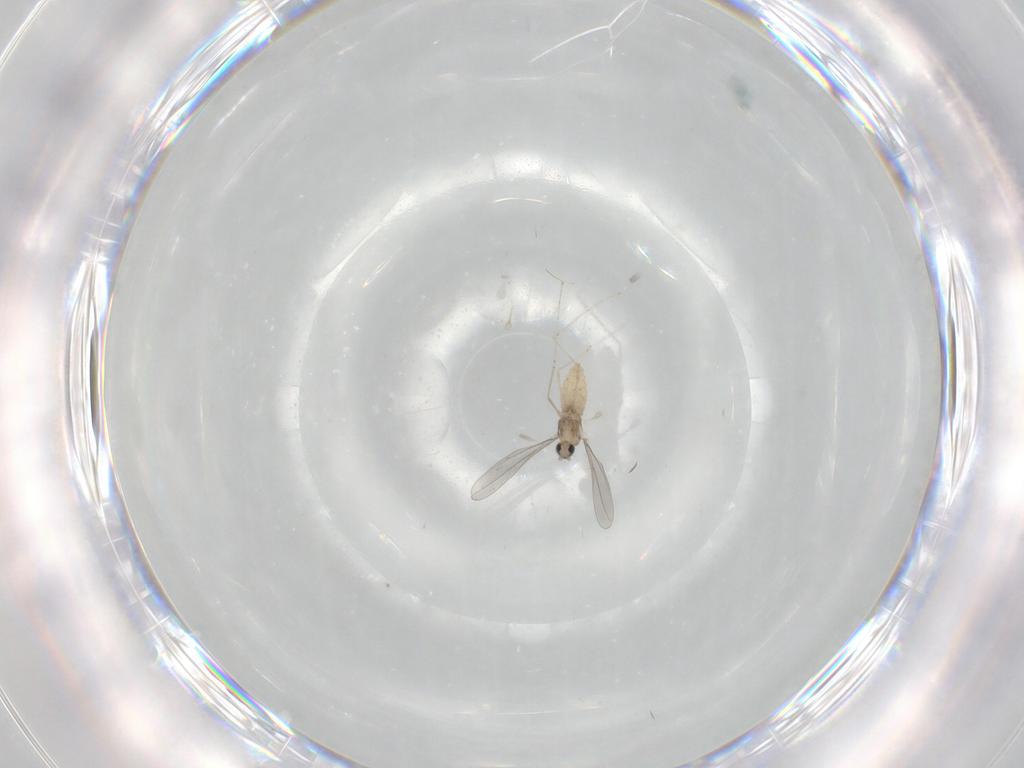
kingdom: Animalia
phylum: Arthropoda
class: Insecta
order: Diptera
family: Cecidomyiidae
